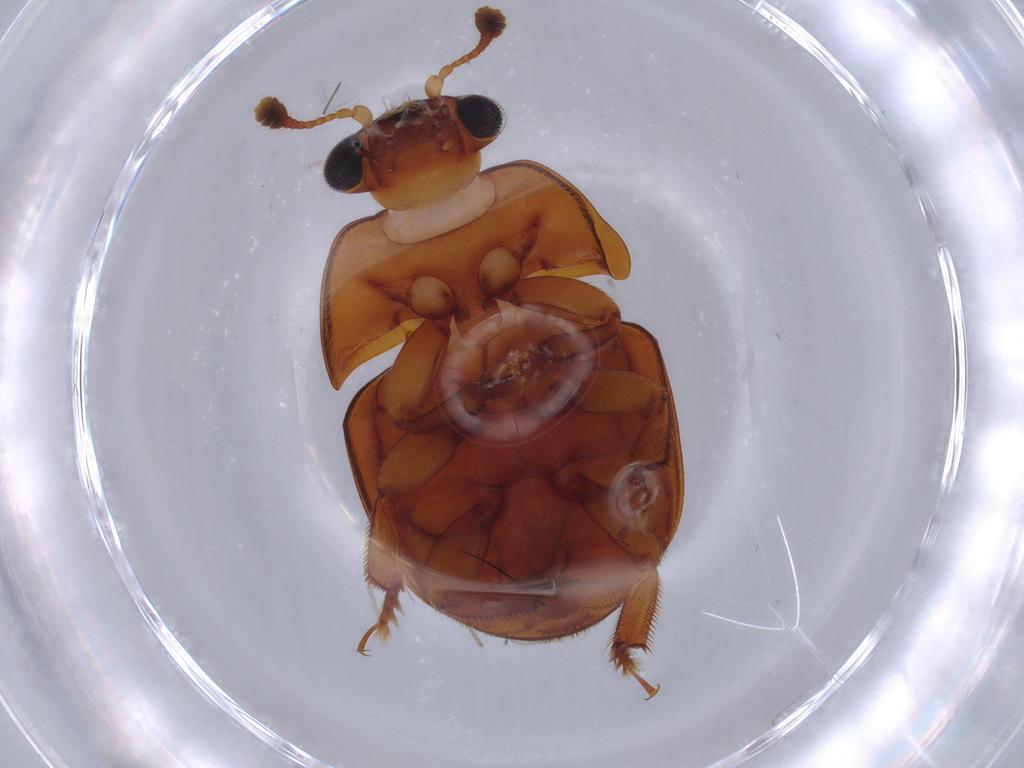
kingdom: Animalia
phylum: Arthropoda
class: Insecta
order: Coleoptera
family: Nitidulidae
